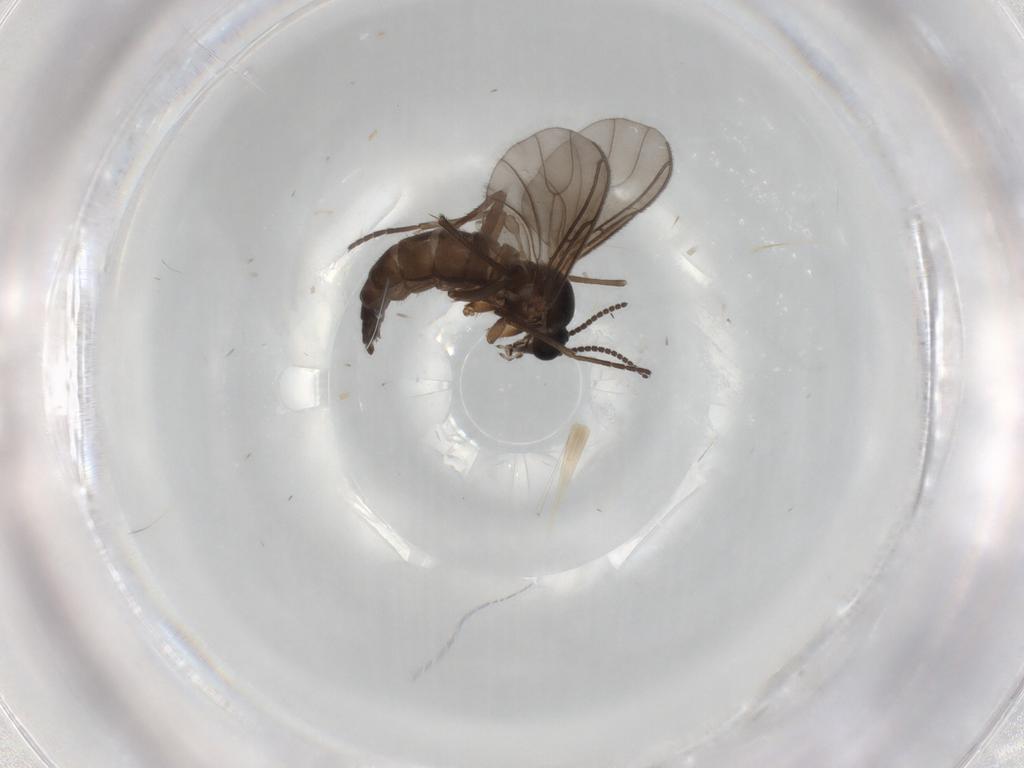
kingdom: Animalia
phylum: Arthropoda
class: Insecta
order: Diptera
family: Sciaridae
